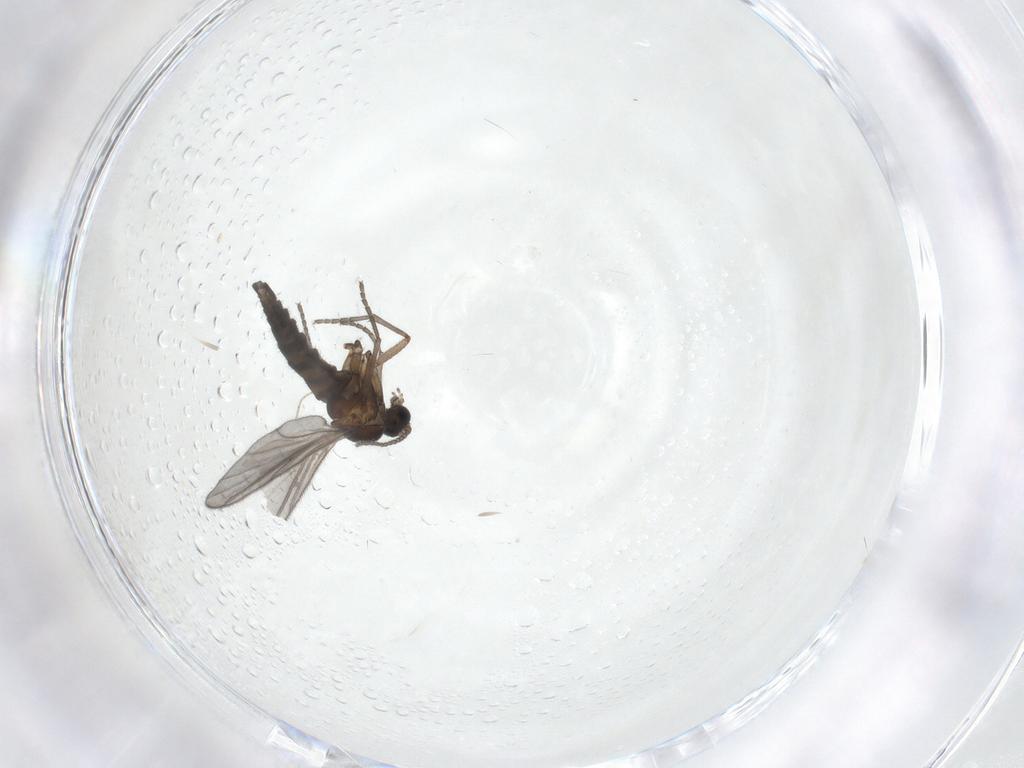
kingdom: Animalia
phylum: Arthropoda
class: Insecta
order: Diptera
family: Sciaridae
